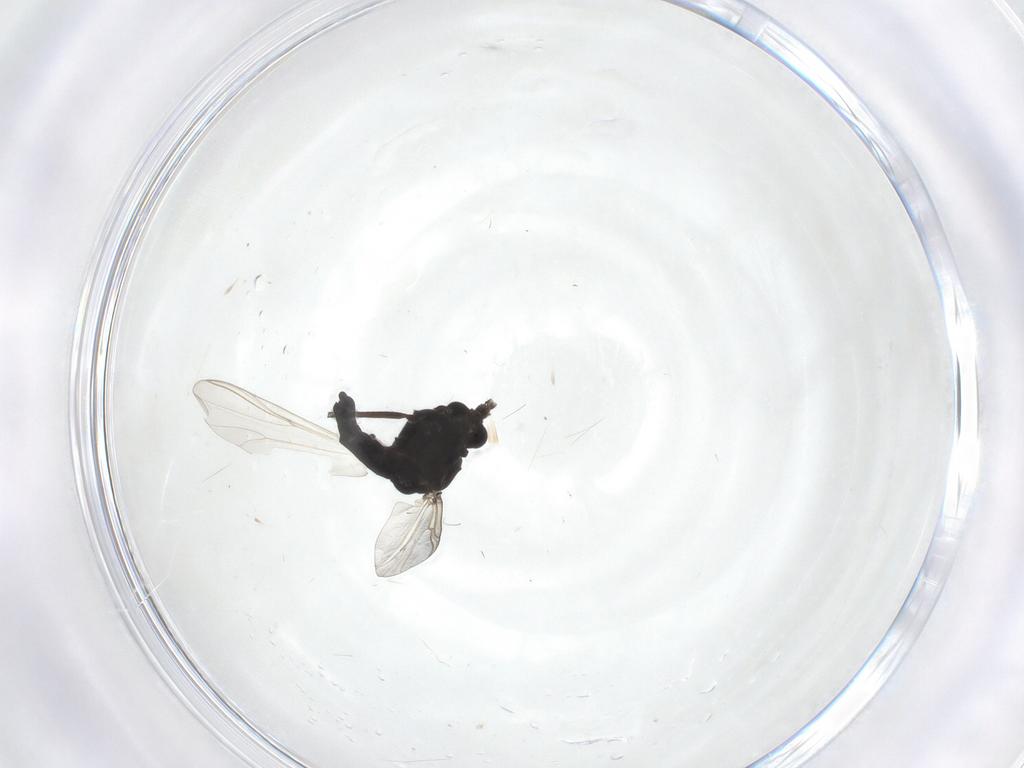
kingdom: Animalia
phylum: Arthropoda
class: Insecta
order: Diptera
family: Chironomidae
